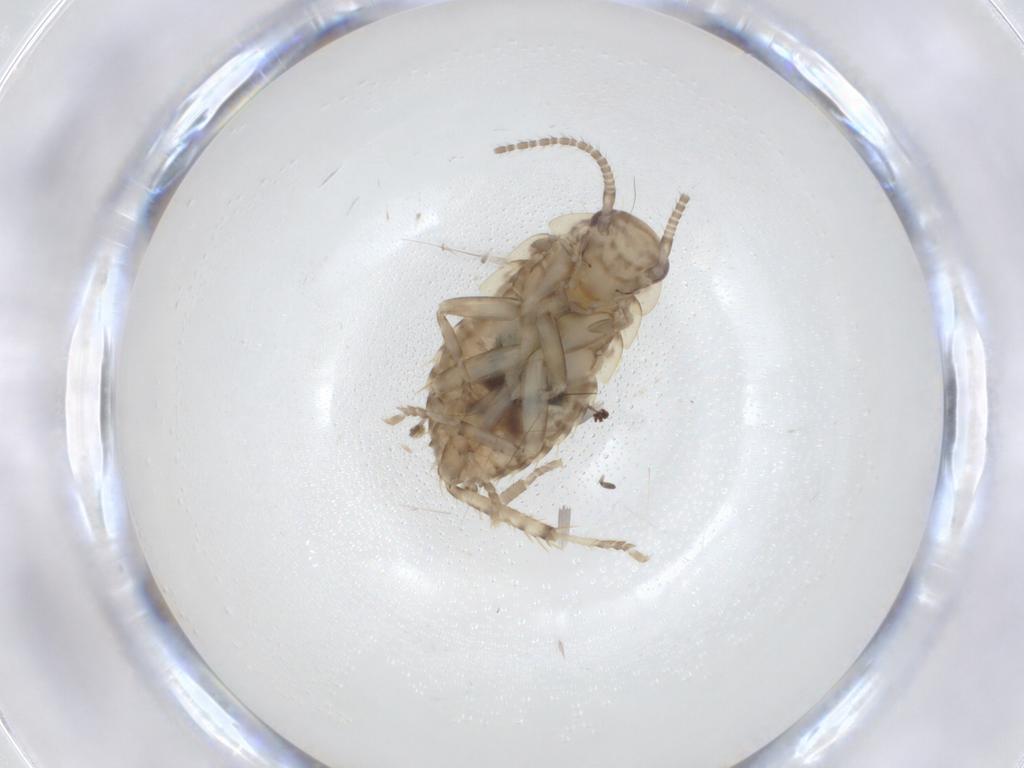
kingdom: Animalia
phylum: Arthropoda
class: Insecta
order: Blattodea
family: Ectobiidae
